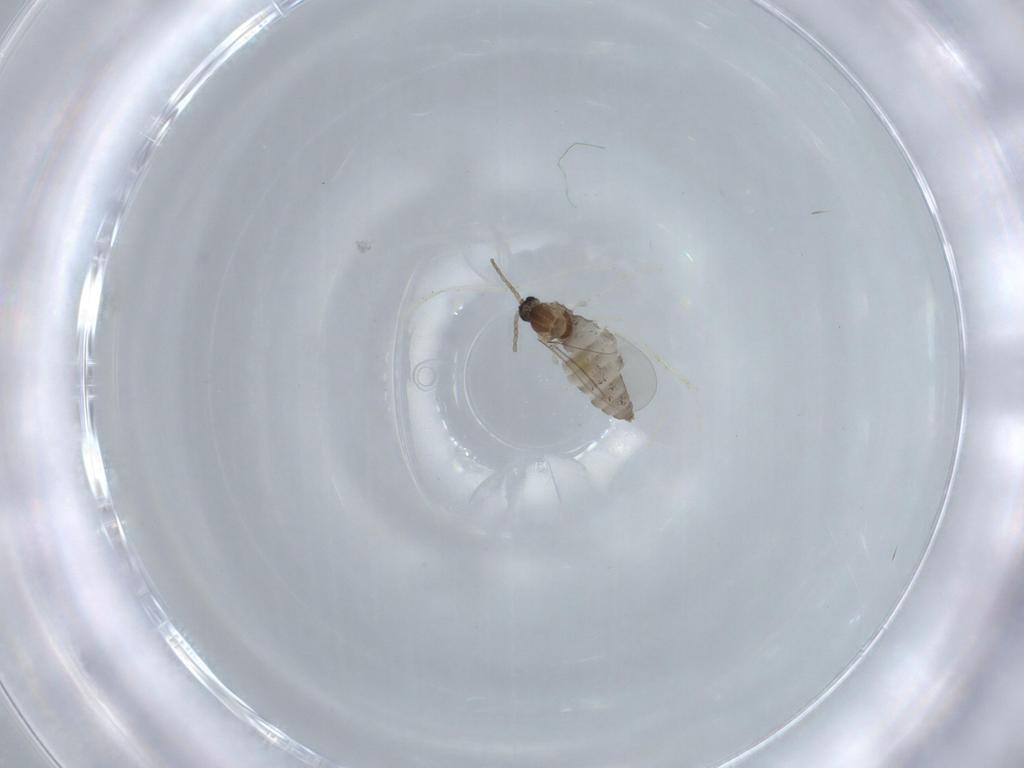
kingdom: Animalia
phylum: Arthropoda
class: Insecta
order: Diptera
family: Cecidomyiidae
